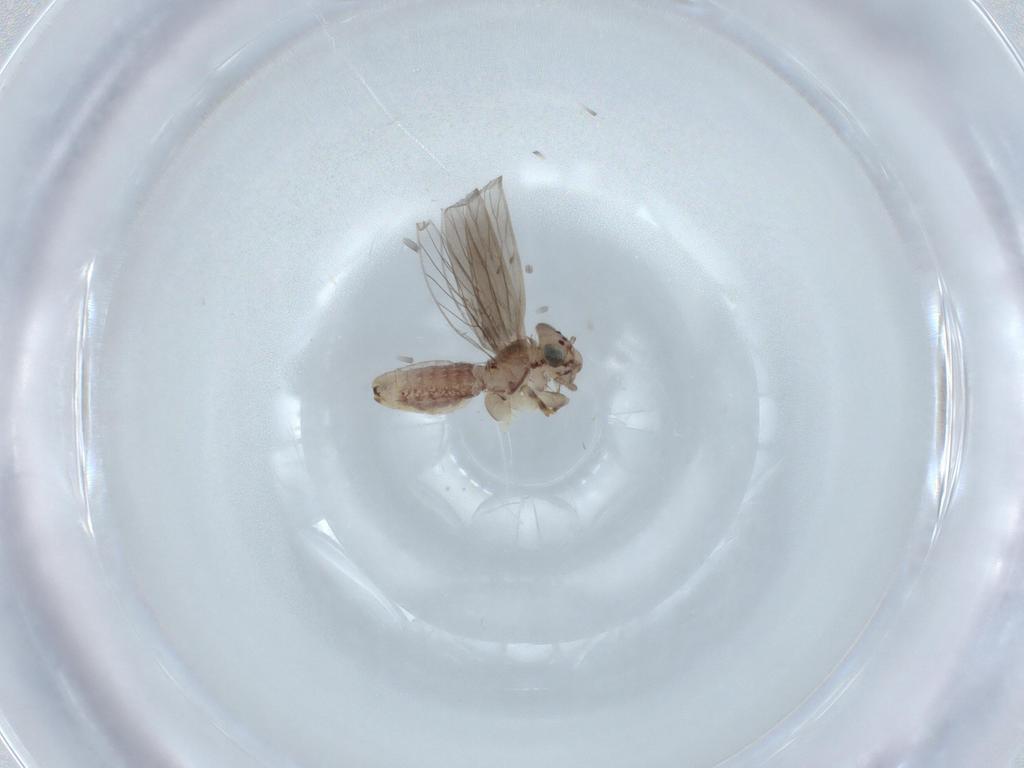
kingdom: Animalia
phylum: Arthropoda
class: Insecta
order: Psocodea
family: Lepidopsocidae
